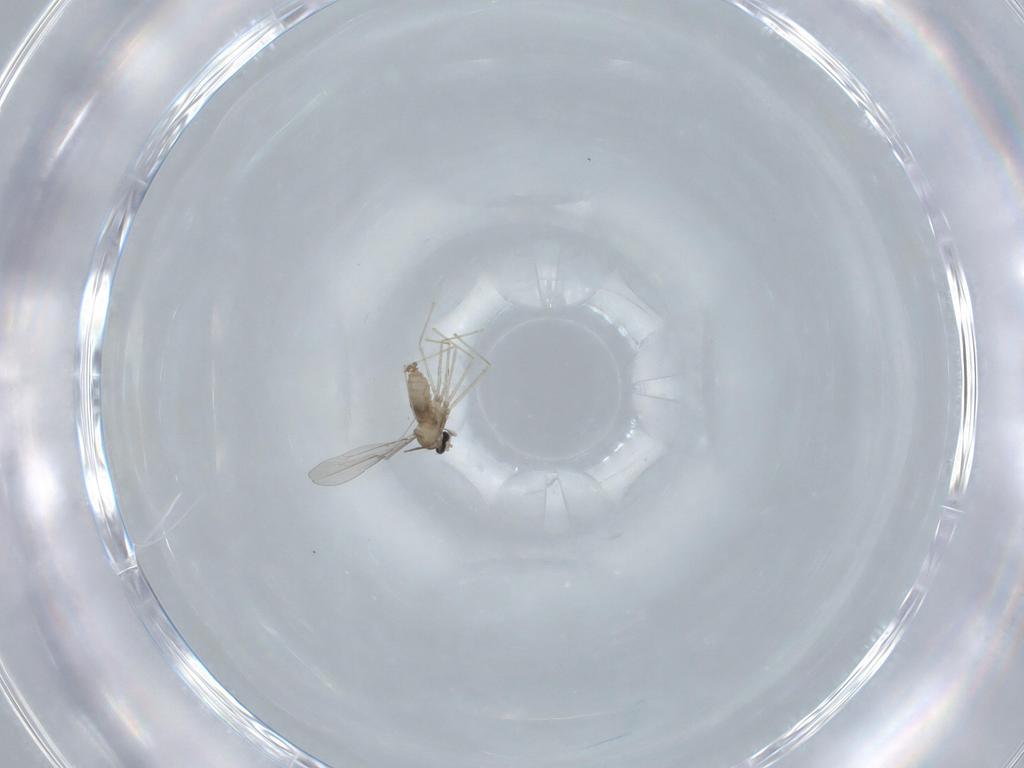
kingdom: Animalia
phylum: Arthropoda
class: Insecta
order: Diptera
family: Cecidomyiidae
